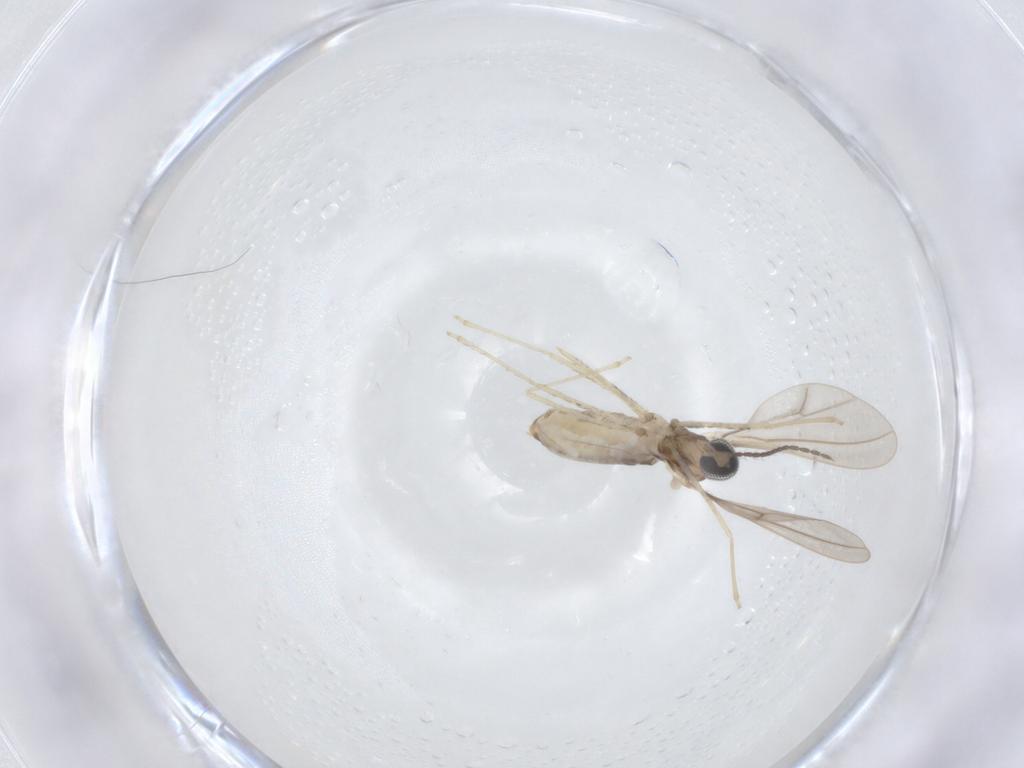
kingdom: Animalia
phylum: Arthropoda
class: Insecta
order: Diptera
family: Cecidomyiidae
